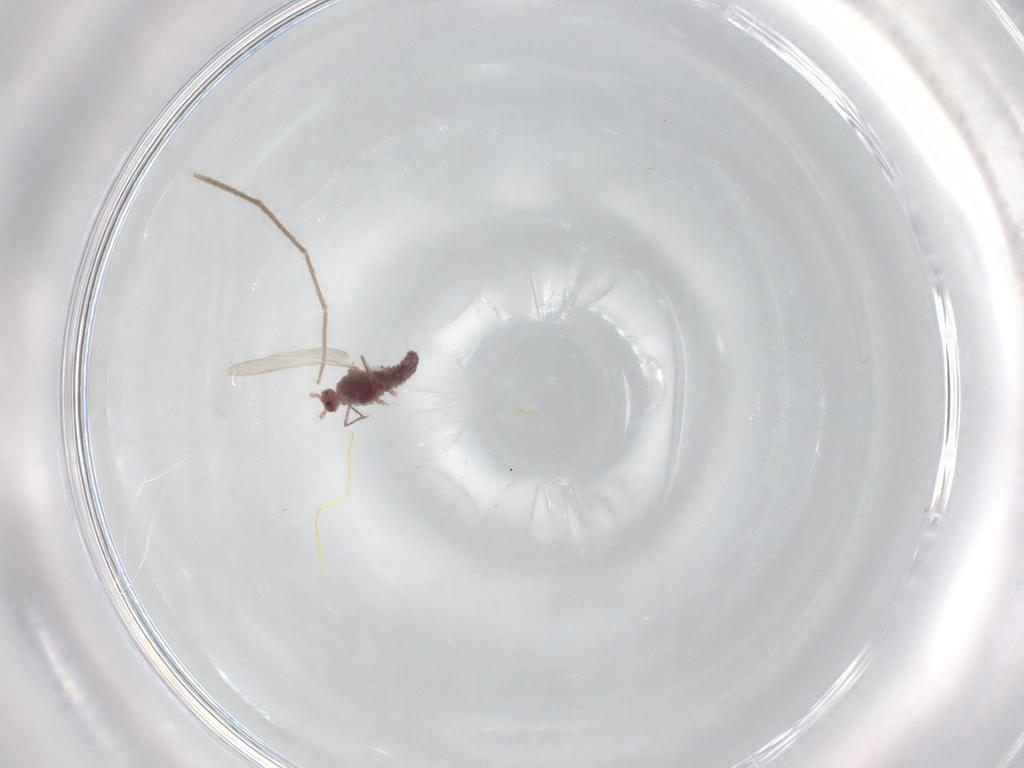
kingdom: Animalia
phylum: Arthropoda
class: Insecta
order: Diptera
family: Chironomidae
